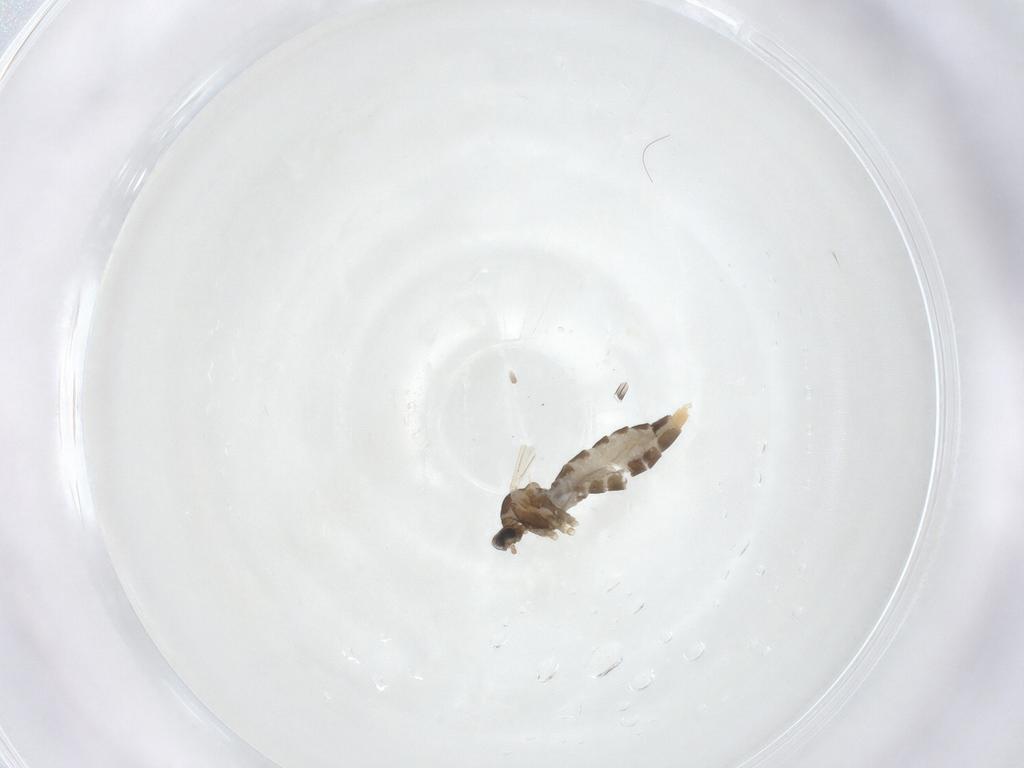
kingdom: Animalia
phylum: Arthropoda
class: Insecta
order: Diptera
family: Cecidomyiidae
